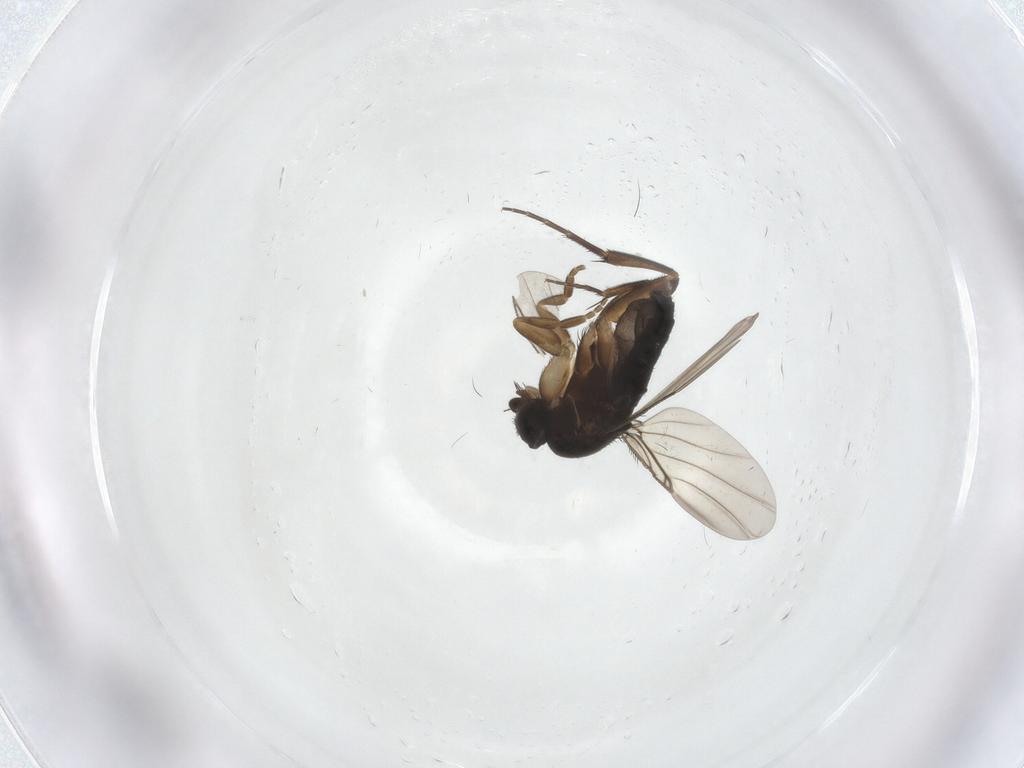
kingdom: Animalia
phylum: Arthropoda
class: Insecta
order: Diptera
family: Phoridae
